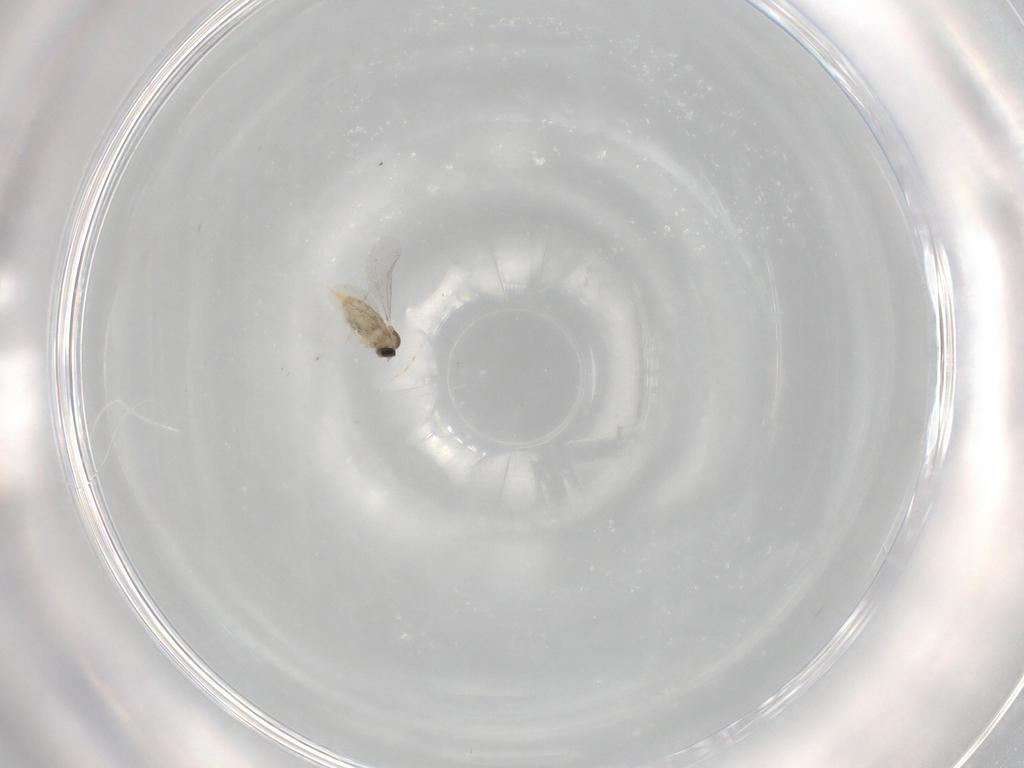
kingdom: Animalia
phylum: Arthropoda
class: Insecta
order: Diptera
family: Cecidomyiidae
